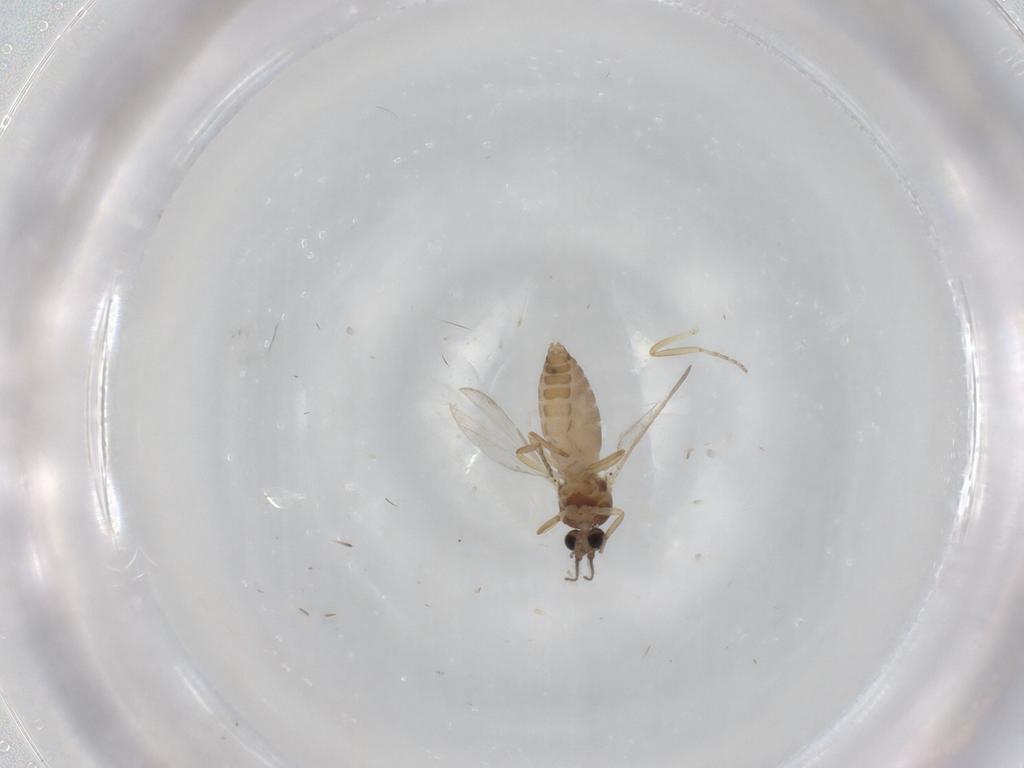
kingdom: Animalia
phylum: Arthropoda
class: Insecta
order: Diptera
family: Ceratopogonidae
